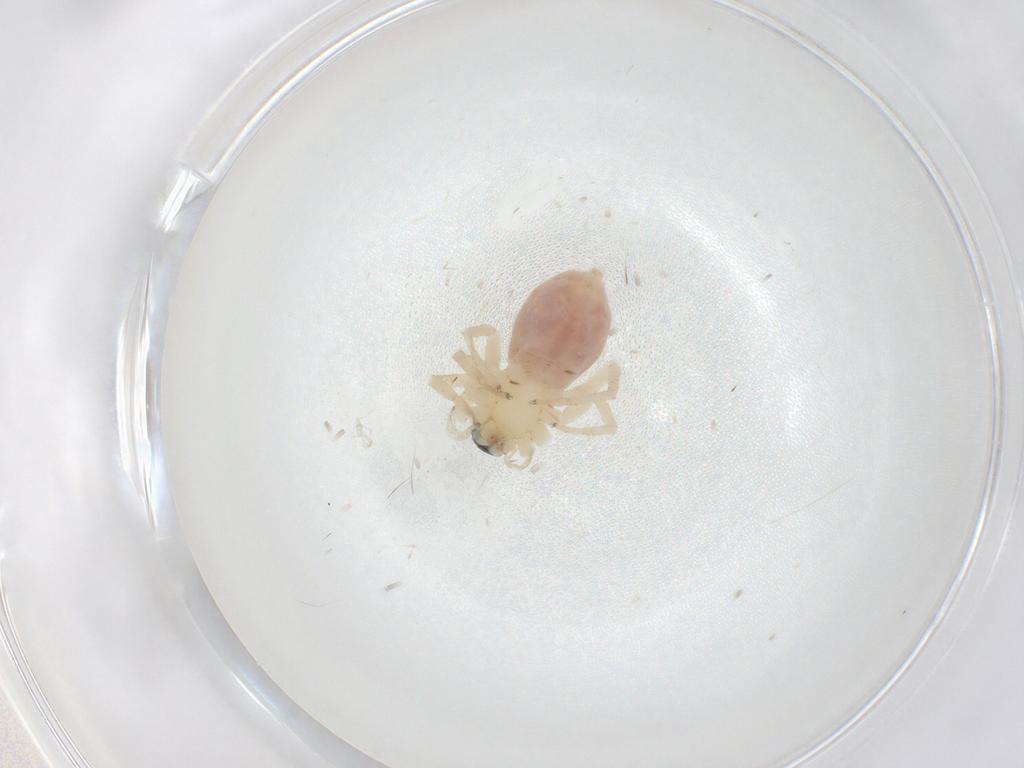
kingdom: Animalia
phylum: Arthropoda
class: Arachnida
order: Araneae
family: Anyphaenidae
